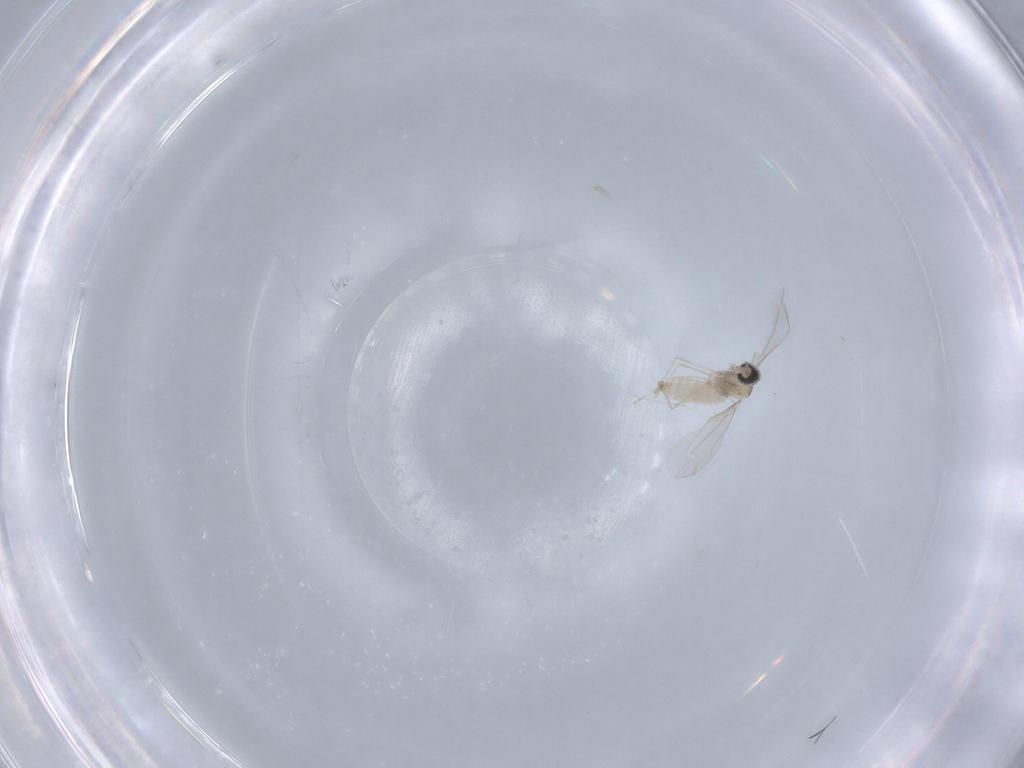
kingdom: Animalia
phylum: Arthropoda
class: Insecta
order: Diptera
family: Cecidomyiidae
